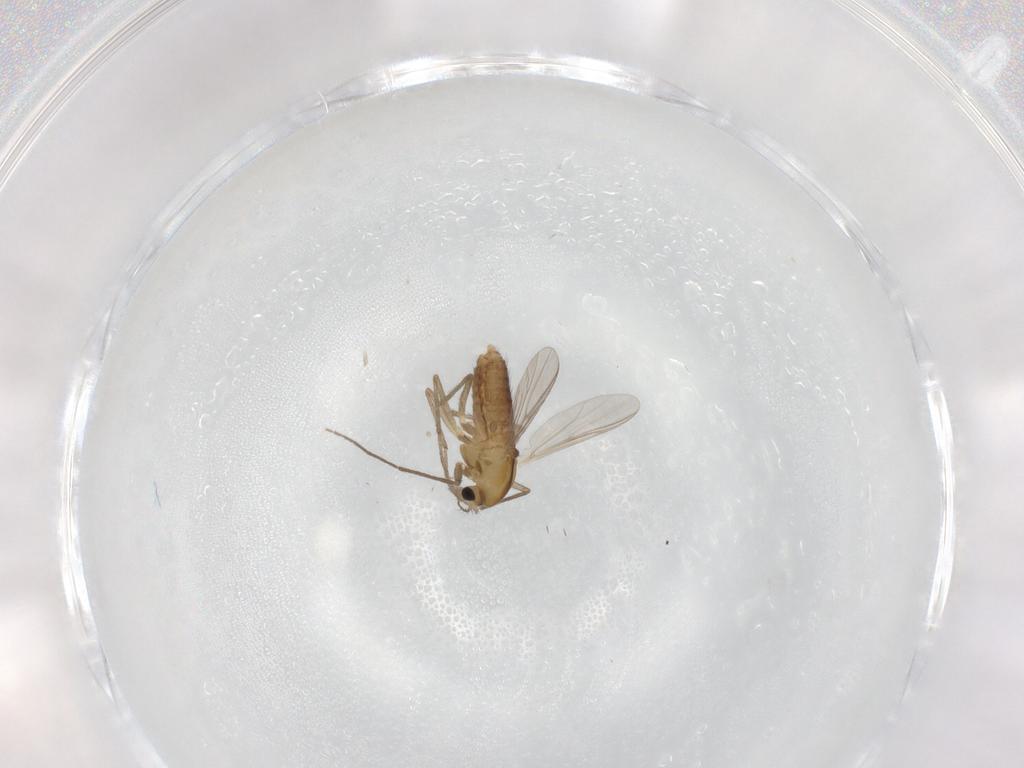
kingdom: Animalia
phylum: Arthropoda
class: Insecta
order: Diptera
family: Chironomidae
